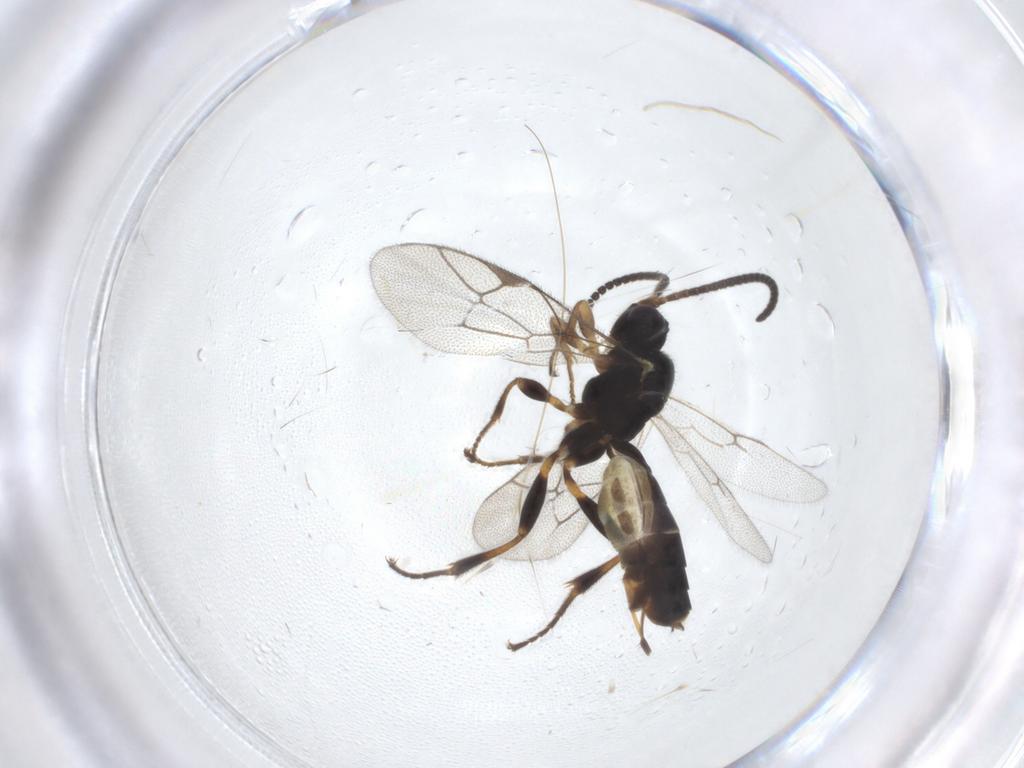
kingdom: Animalia
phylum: Arthropoda
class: Insecta
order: Hymenoptera
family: Ichneumonidae
